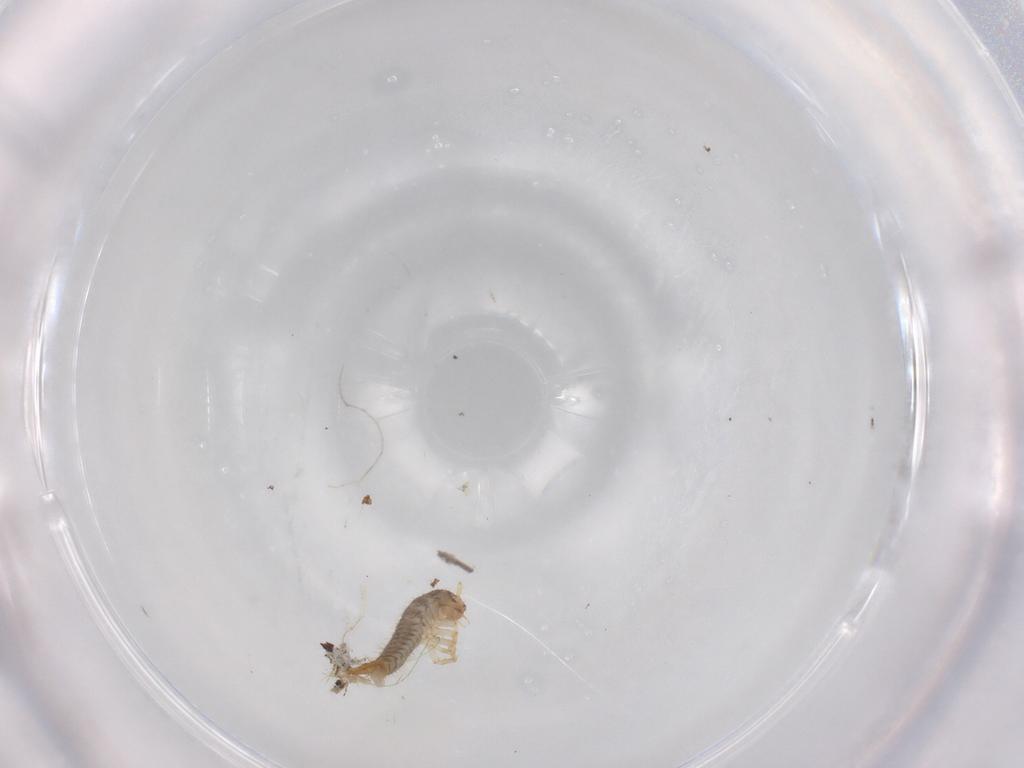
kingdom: Animalia
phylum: Arthropoda
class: Insecta
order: Coleoptera
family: Staphylinidae
